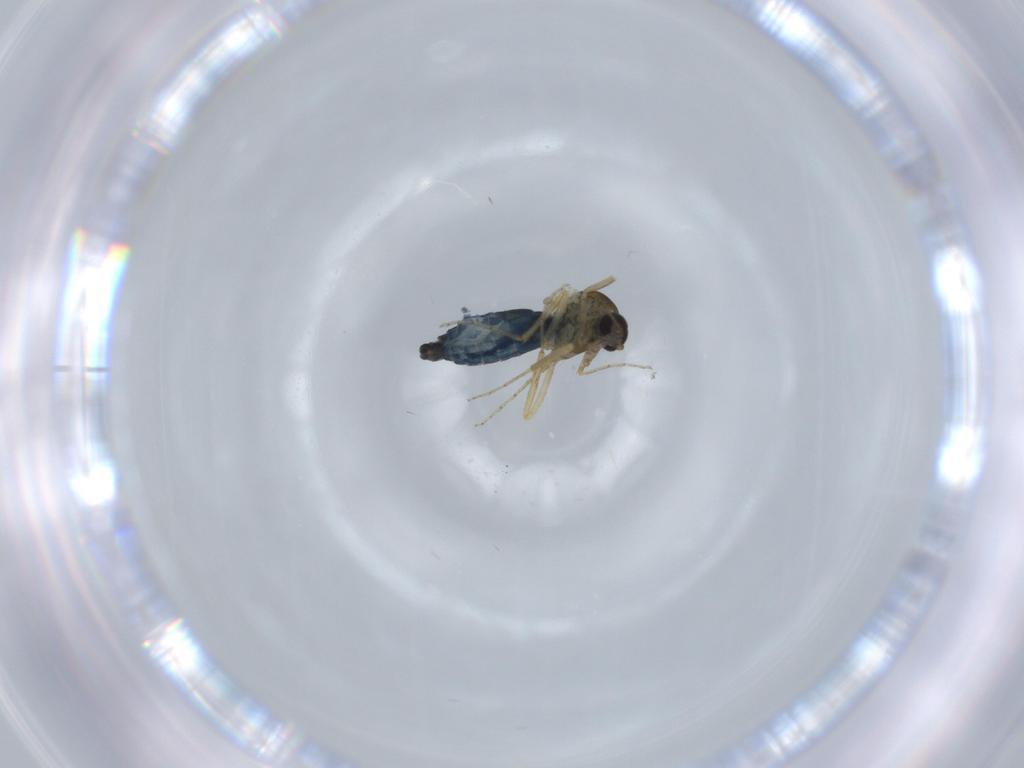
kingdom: Animalia
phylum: Arthropoda
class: Insecta
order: Diptera
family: Ceratopogonidae
